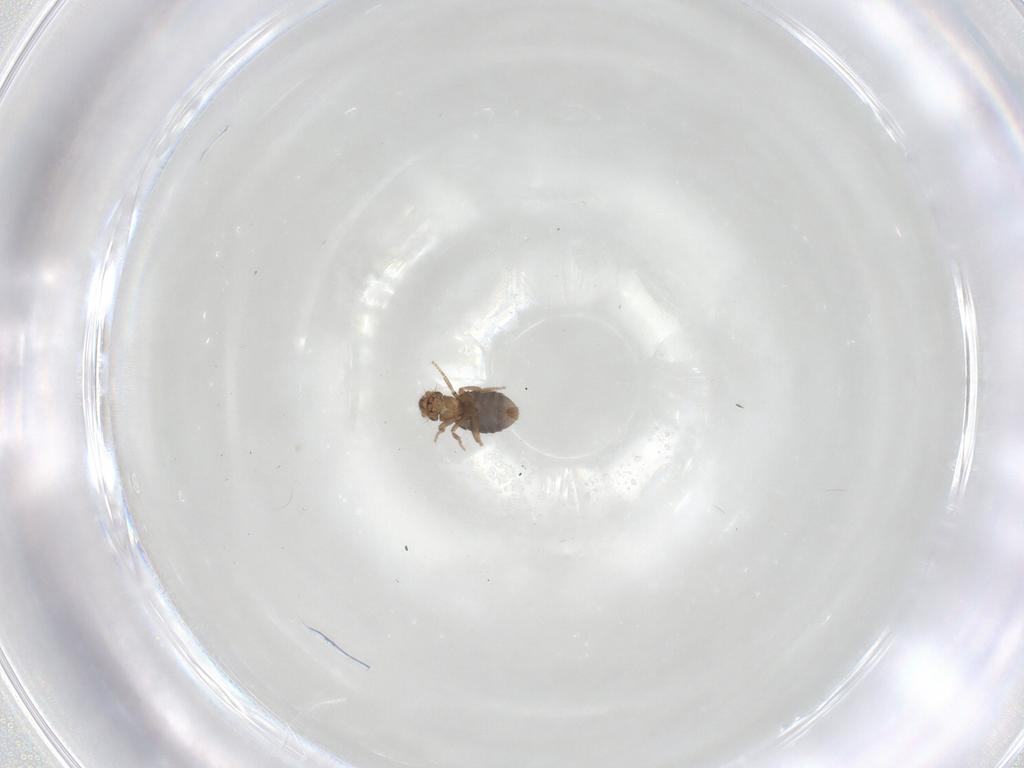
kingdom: Animalia
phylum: Arthropoda
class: Insecta
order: Diptera
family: Psychodidae
